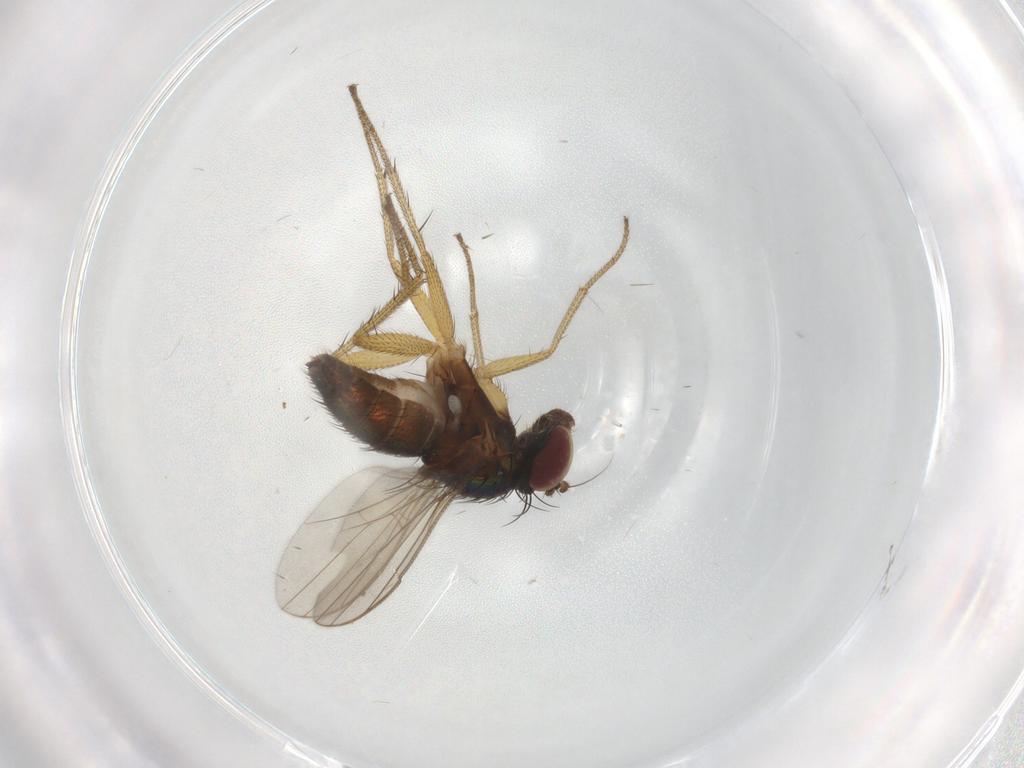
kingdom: Animalia
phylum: Arthropoda
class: Insecta
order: Diptera
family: Dolichopodidae
